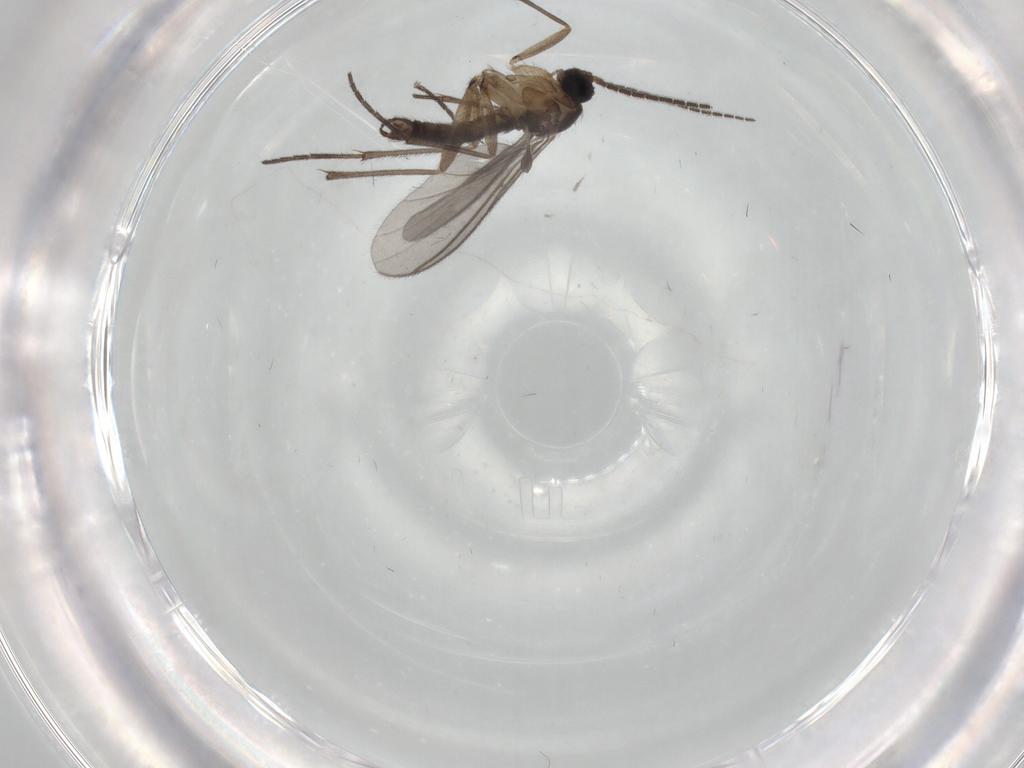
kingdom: Animalia
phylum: Arthropoda
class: Insecta
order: Diptera
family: Sciaridae
